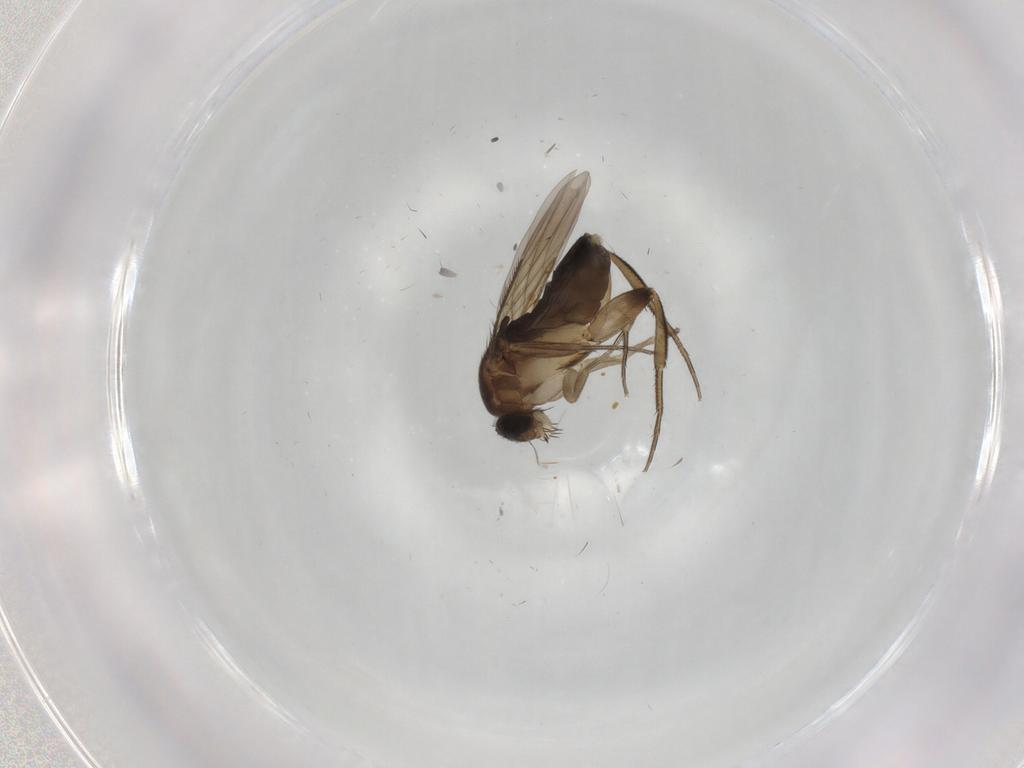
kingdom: Animalia
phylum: Arthropoda
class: Insecta
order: Diptera
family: Phoridae
